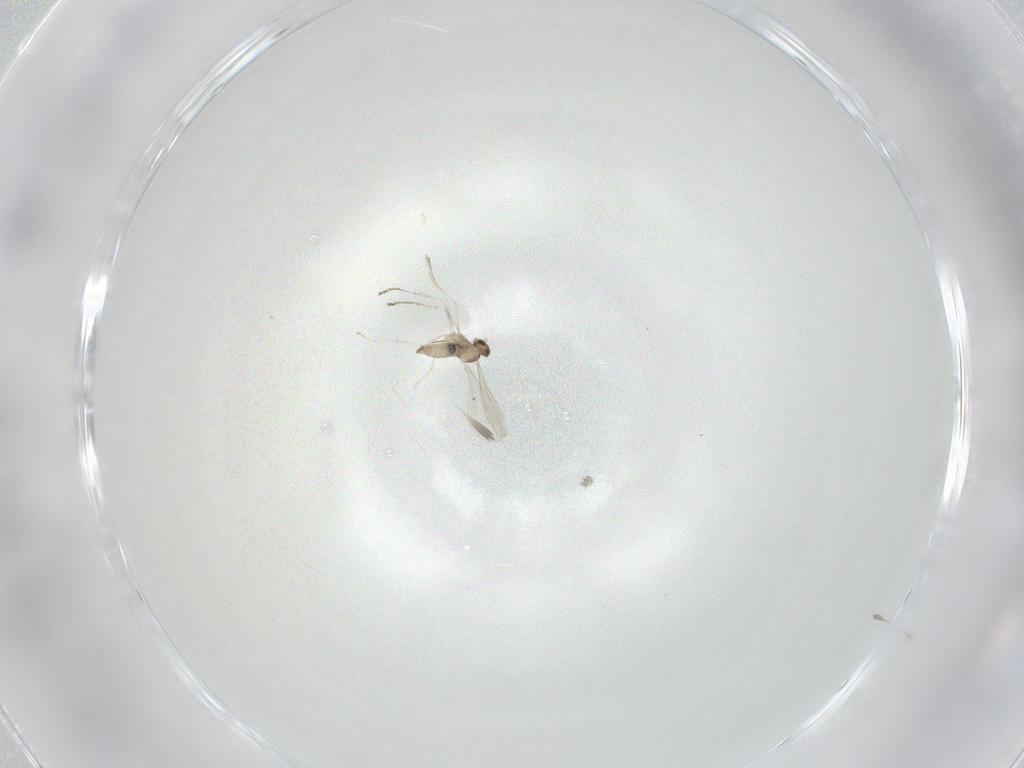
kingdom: Animalia
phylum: Arthropoda
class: Insecta
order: Diptera
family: Cecidomyiidae
